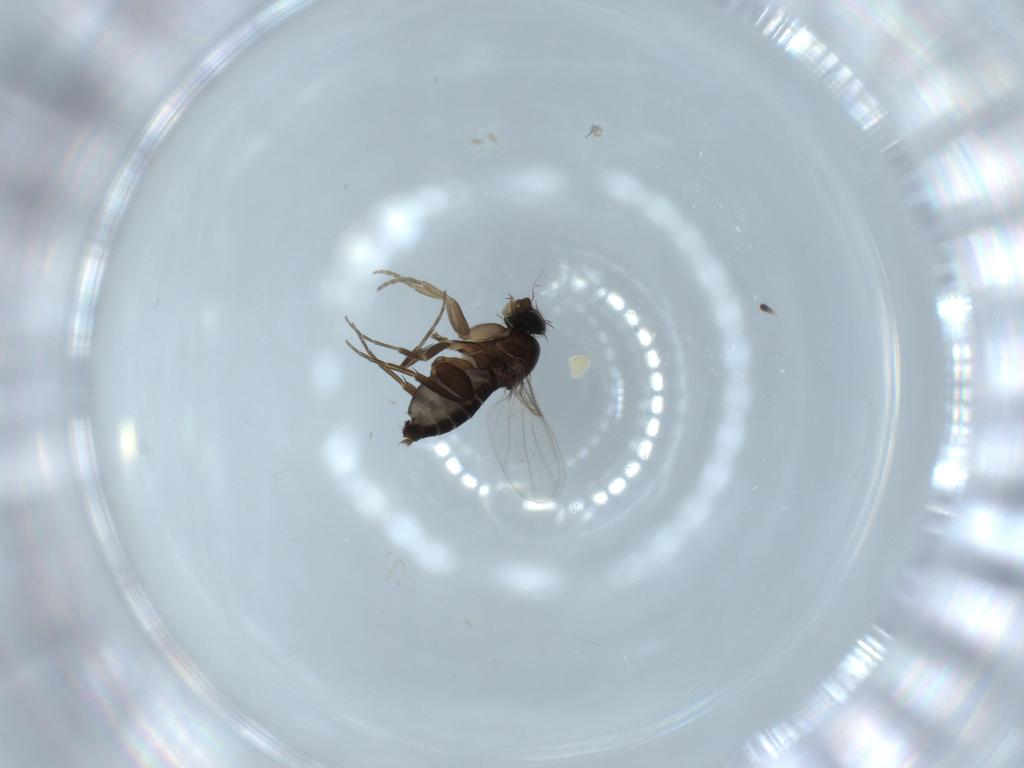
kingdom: Animalia
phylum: Arthropoda
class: Insecta
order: Diptera
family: Phoridae
